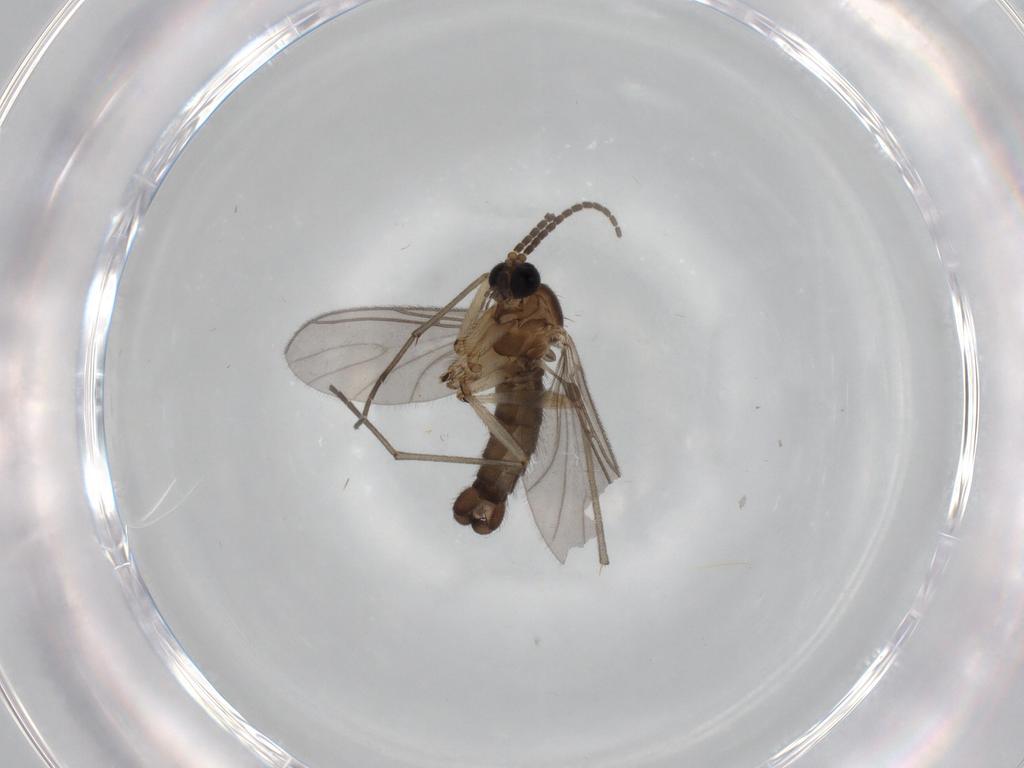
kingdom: Animalia
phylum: Arthropoda
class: Insecta
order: Diptera
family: Sciaridae
